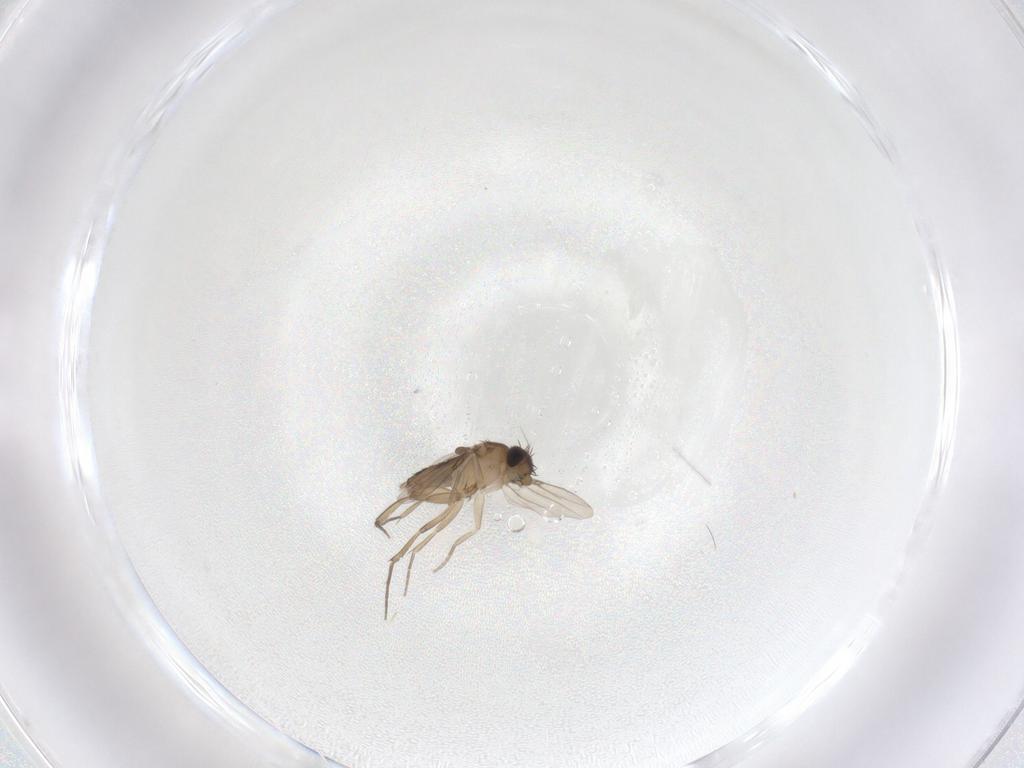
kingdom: Animalia
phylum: Arthropoda
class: Insecta
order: Diptera
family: Phoridae
